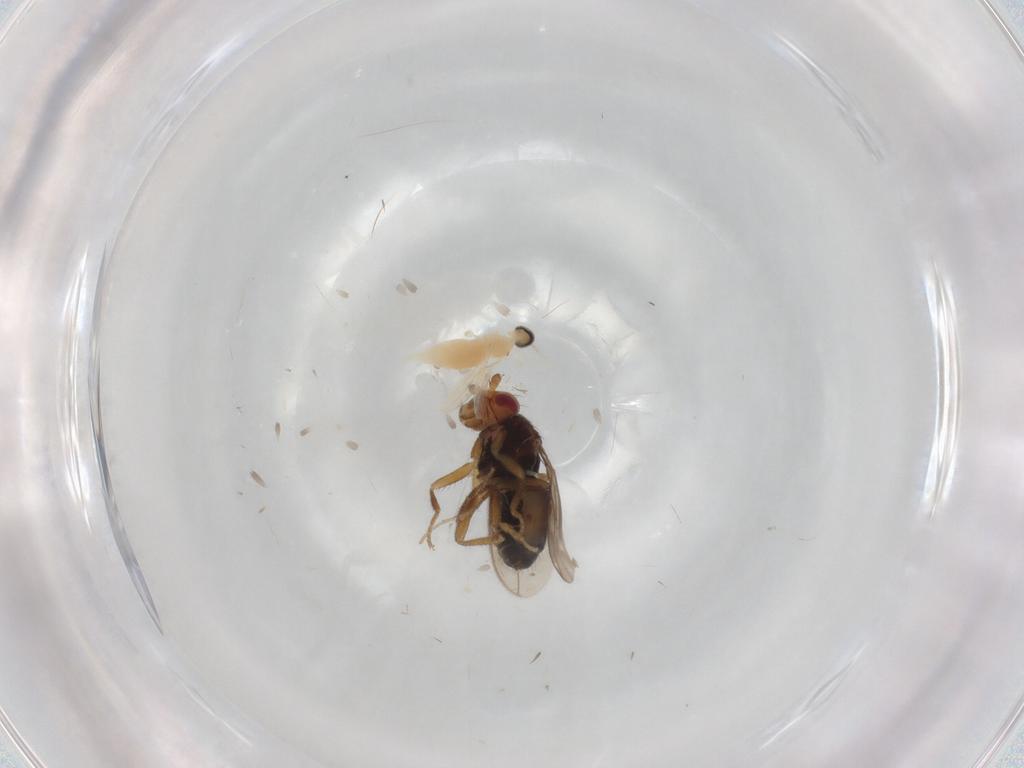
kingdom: Animalia
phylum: Arthropoda
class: Insecta
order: Diptera
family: Sphaeroceridae
